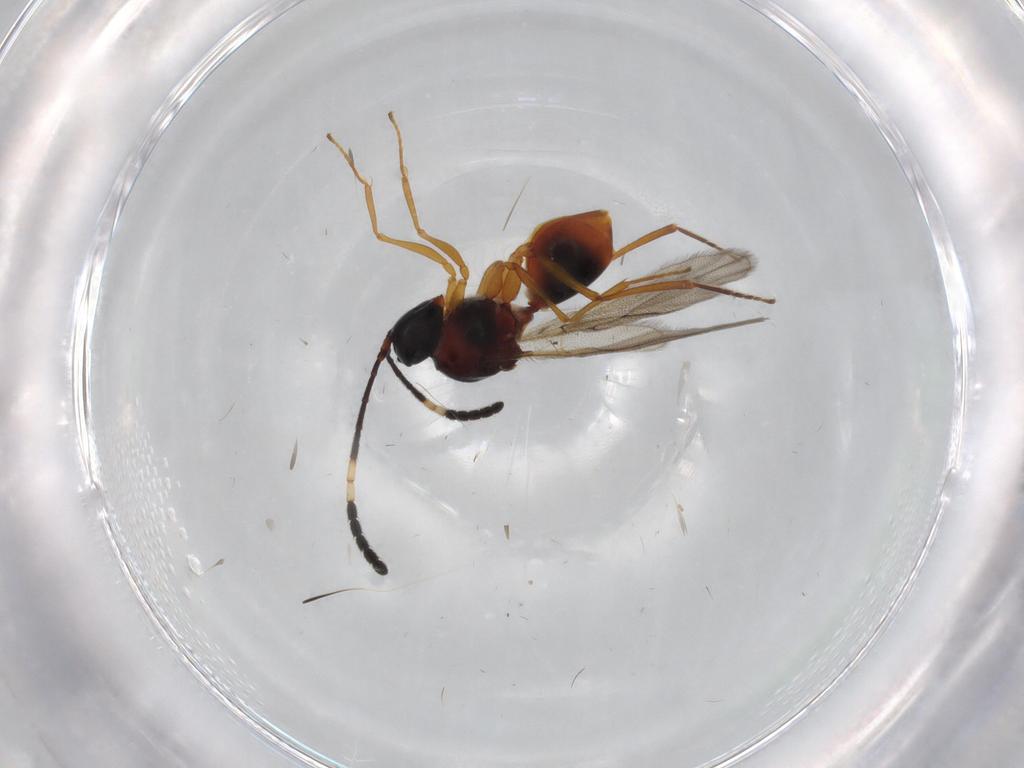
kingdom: Animalia
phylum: Arthropoda
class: Insecta
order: Hymenoptera
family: Figitidae
